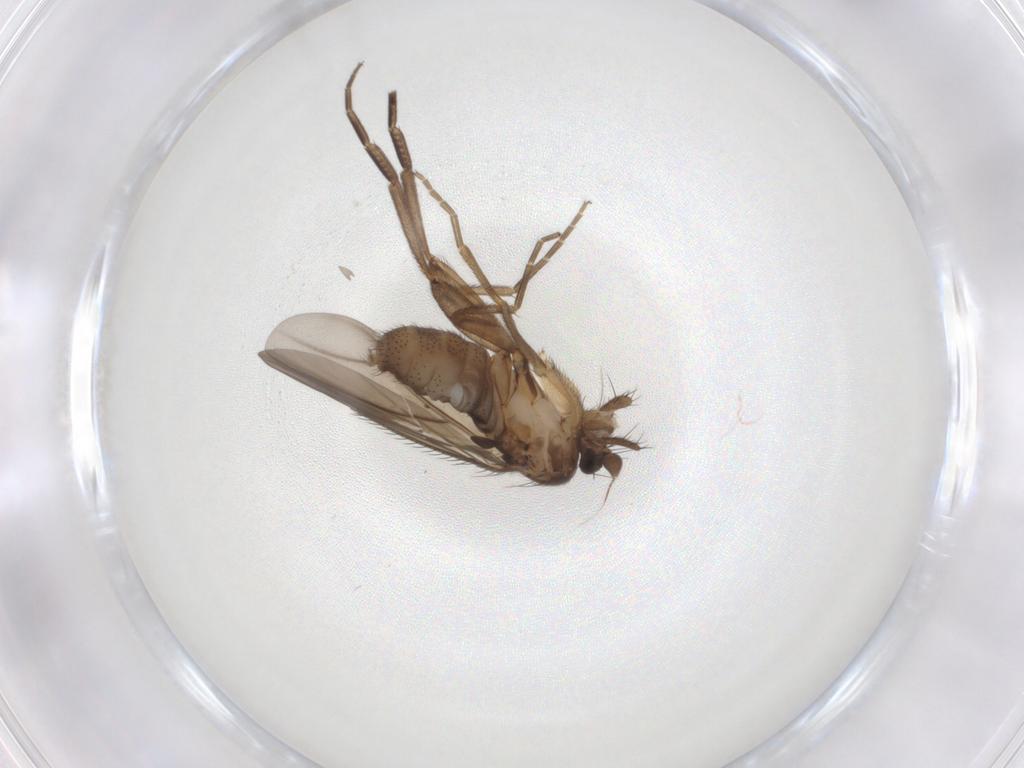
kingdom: Animalia
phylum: Arthropoda
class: Insecta
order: Diptera
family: Phoridae
